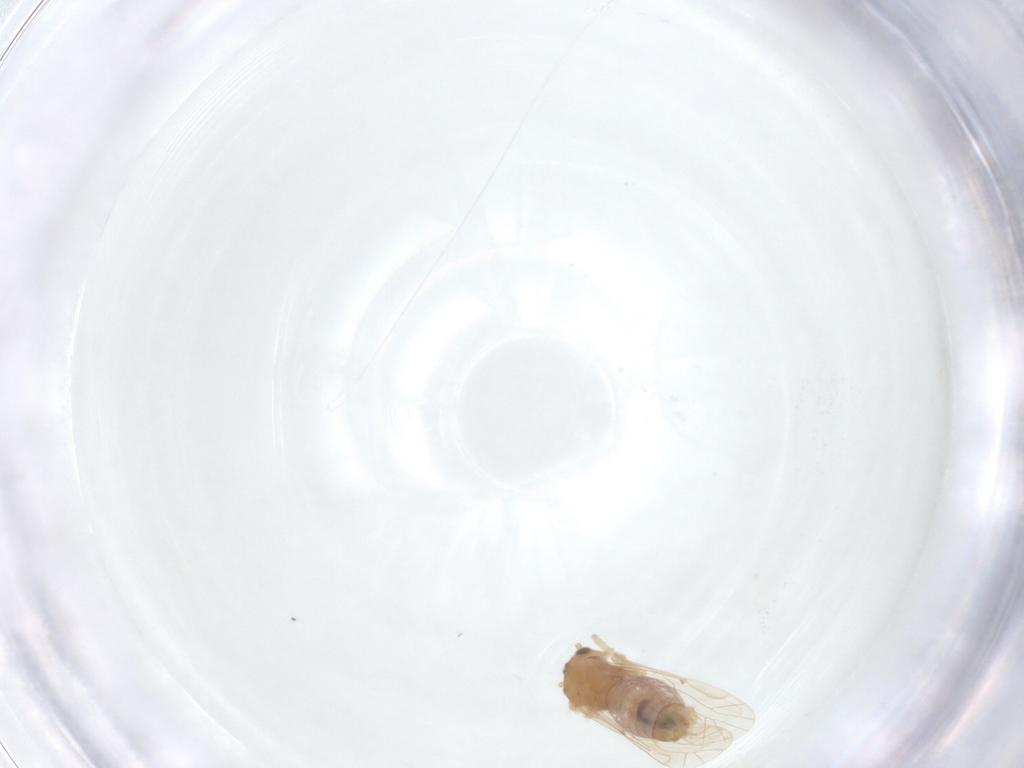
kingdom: Animalia
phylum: Arthropoda
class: Insecta
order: Psocodea
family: Lachesillidae
